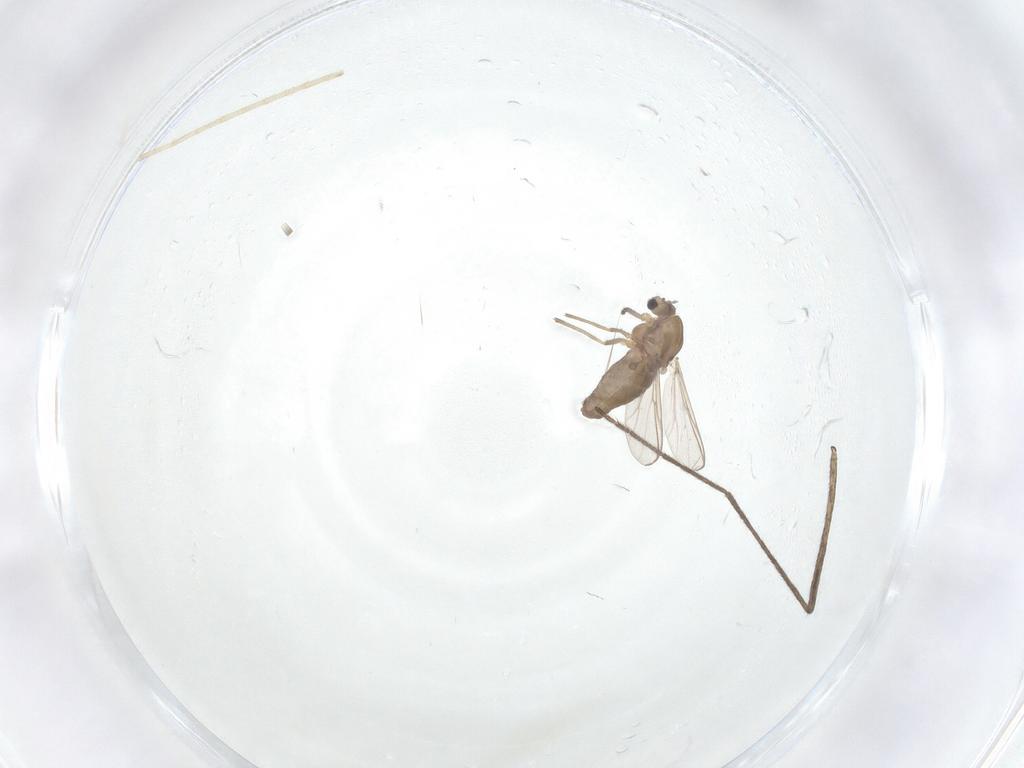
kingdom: Animalia
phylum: Arthropoda
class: Insecta
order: Diptera
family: Chironomidae
